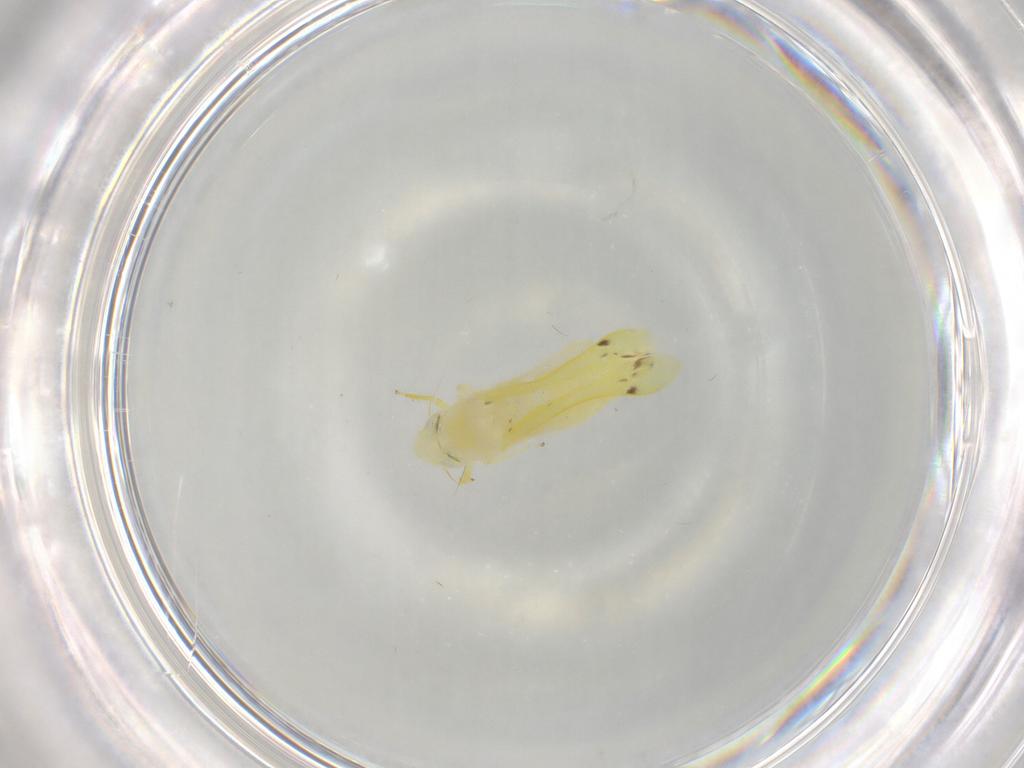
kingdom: Animalia
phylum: Arthropoda
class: Insecta
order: Hemiptera
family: Cicadellidae
